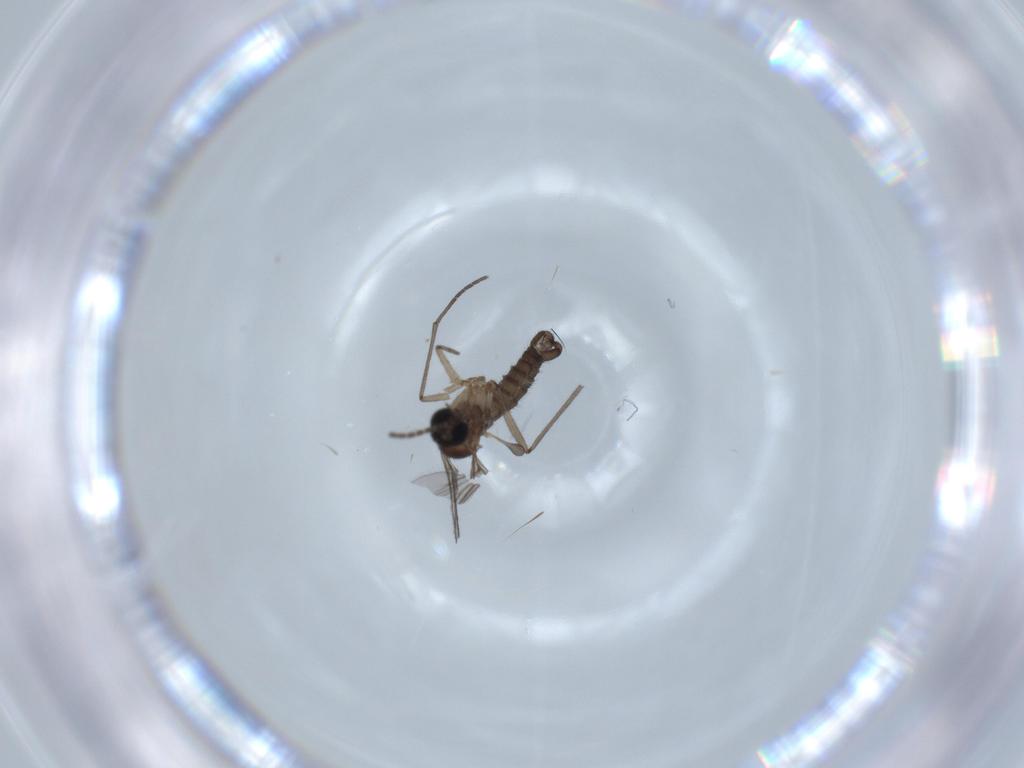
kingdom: Animalia
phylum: Arthropoda
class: Insecta
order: Diptera
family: Sciaridae
